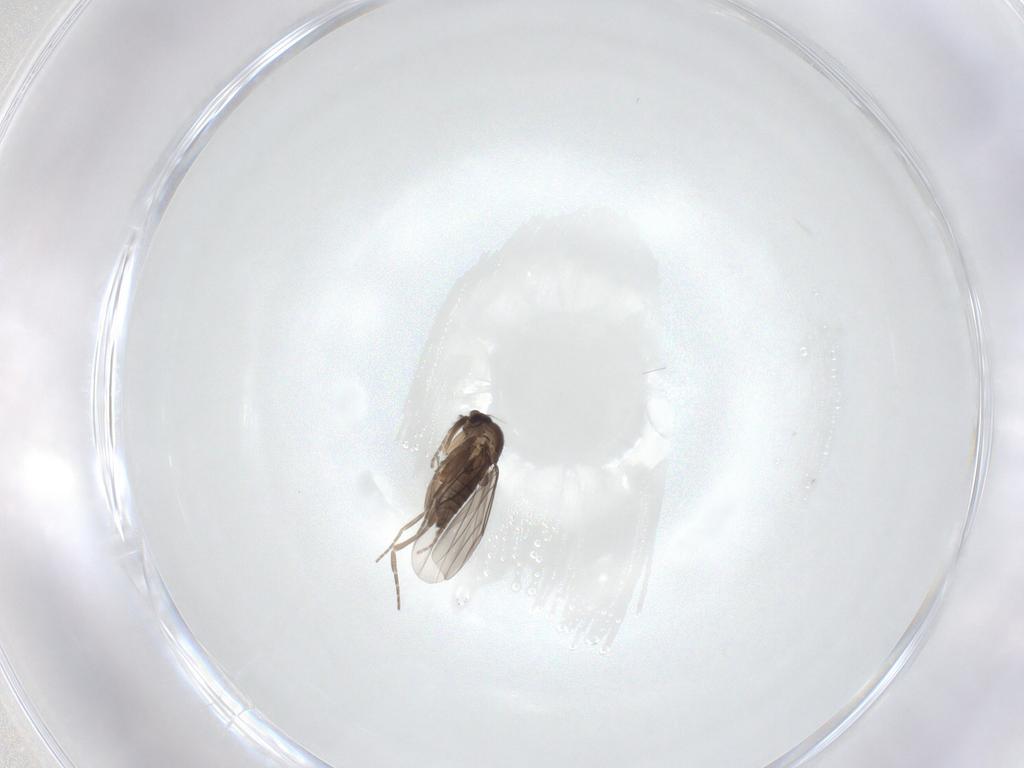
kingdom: Animalia
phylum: Arthropoda
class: Insecta
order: Diptera
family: Phoridae
